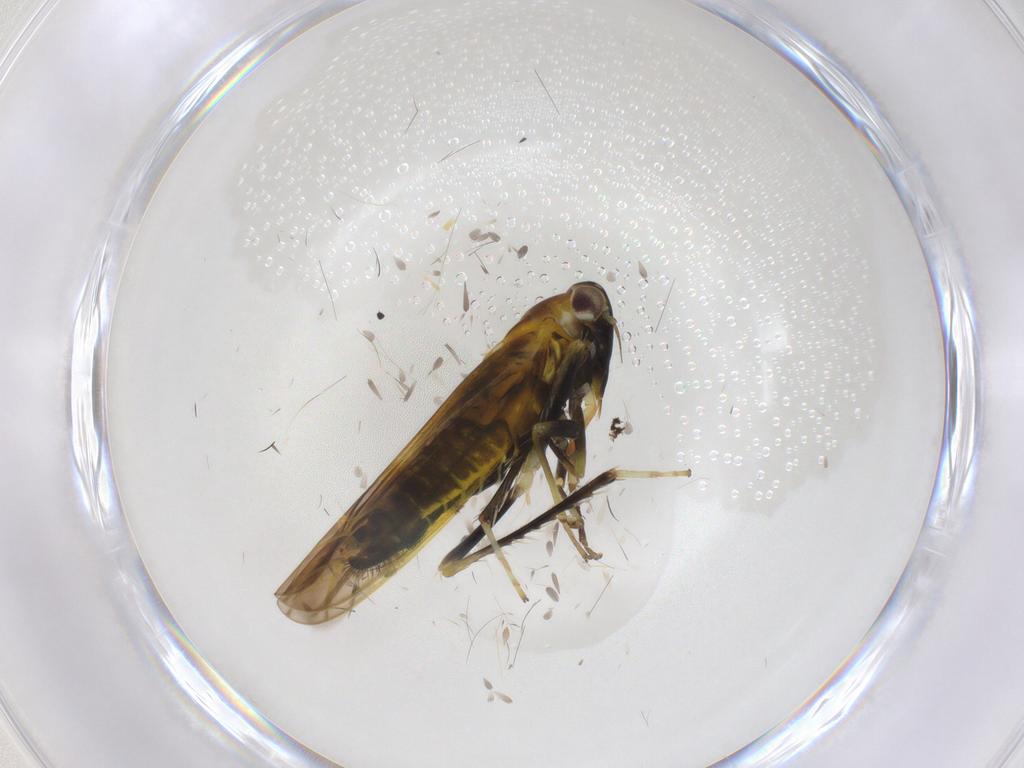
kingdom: Animalia
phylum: Arthropoda
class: Insecta
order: Hemiptera
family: Cicadellidae
